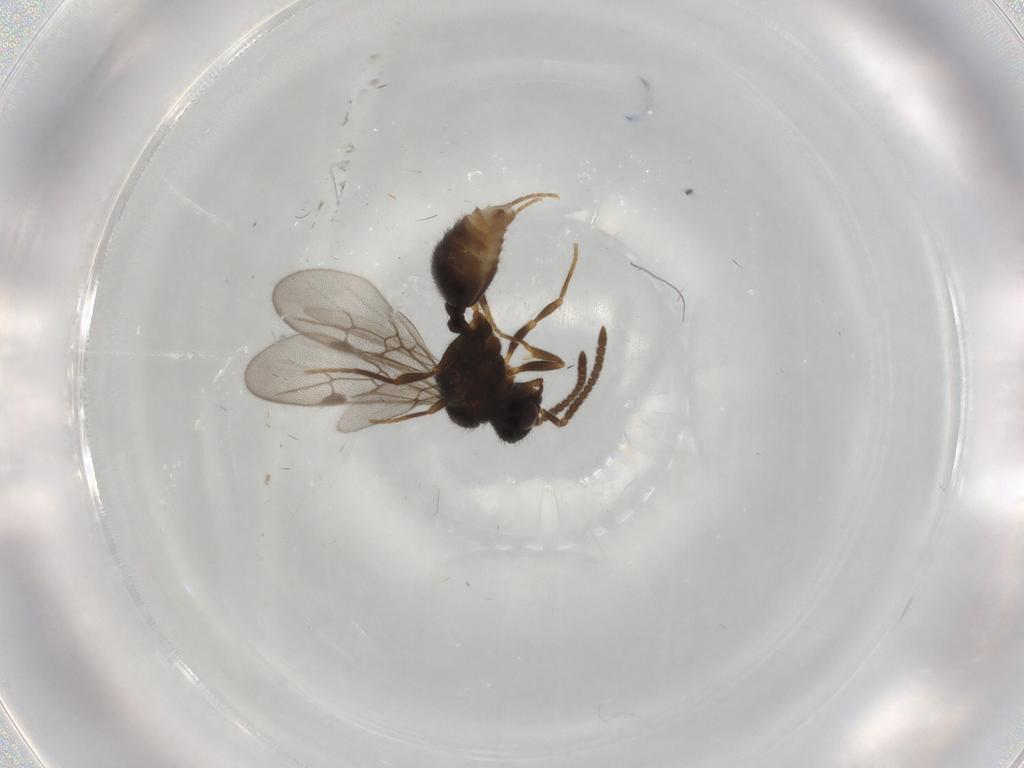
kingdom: Animalia
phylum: Arthropoda
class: Insecta
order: Hymenoptera
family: Formicidae
